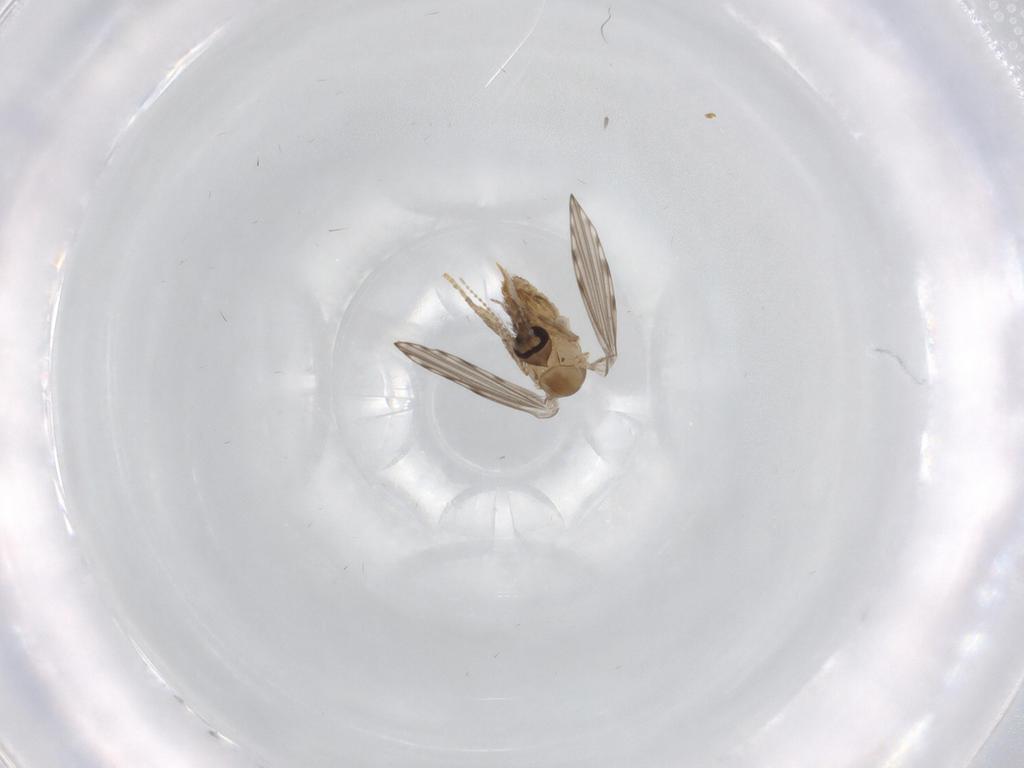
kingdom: Animalia
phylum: Arthropoda
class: Insecta
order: Diptera
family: Psychodidae
